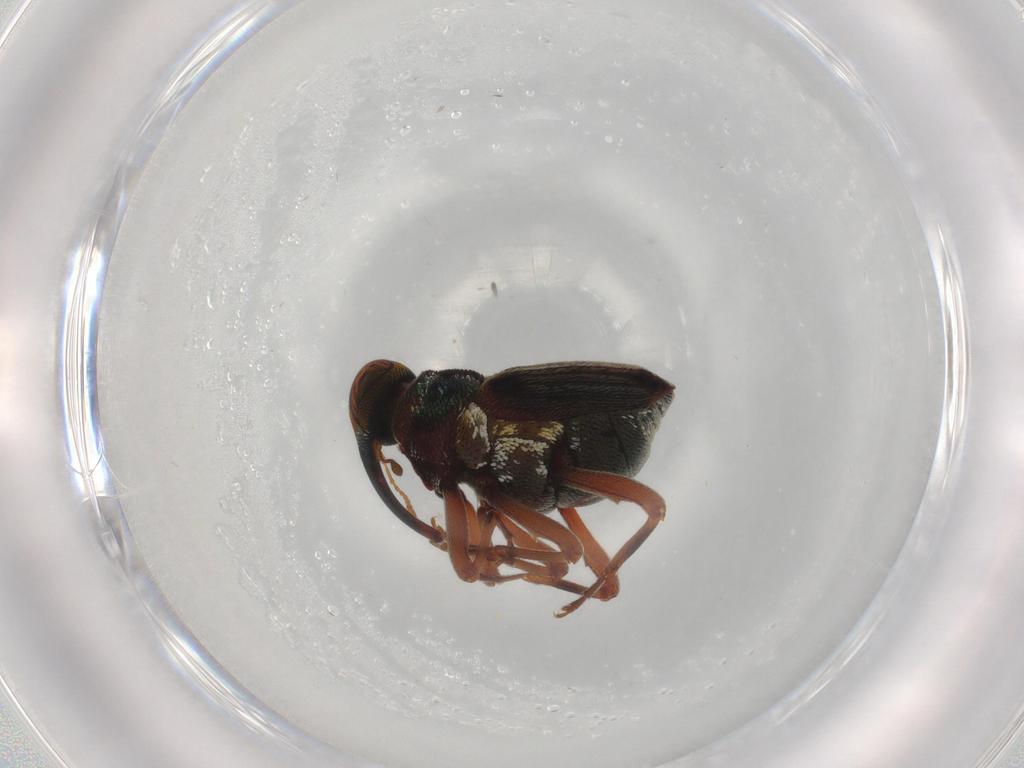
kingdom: Animalia
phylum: Arthropoda
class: Insecta
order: Coleoptera
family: Curculionidae
